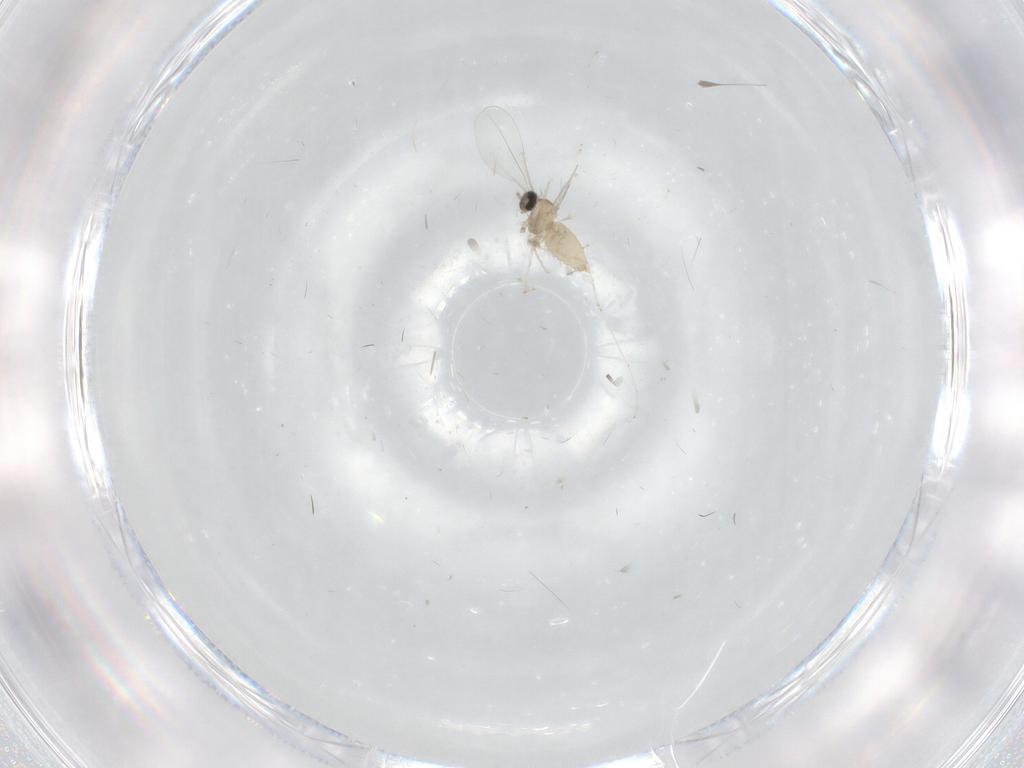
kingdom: Animalia
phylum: Arthropoda
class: Insecta
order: Diptera
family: Cecidomyiidae
